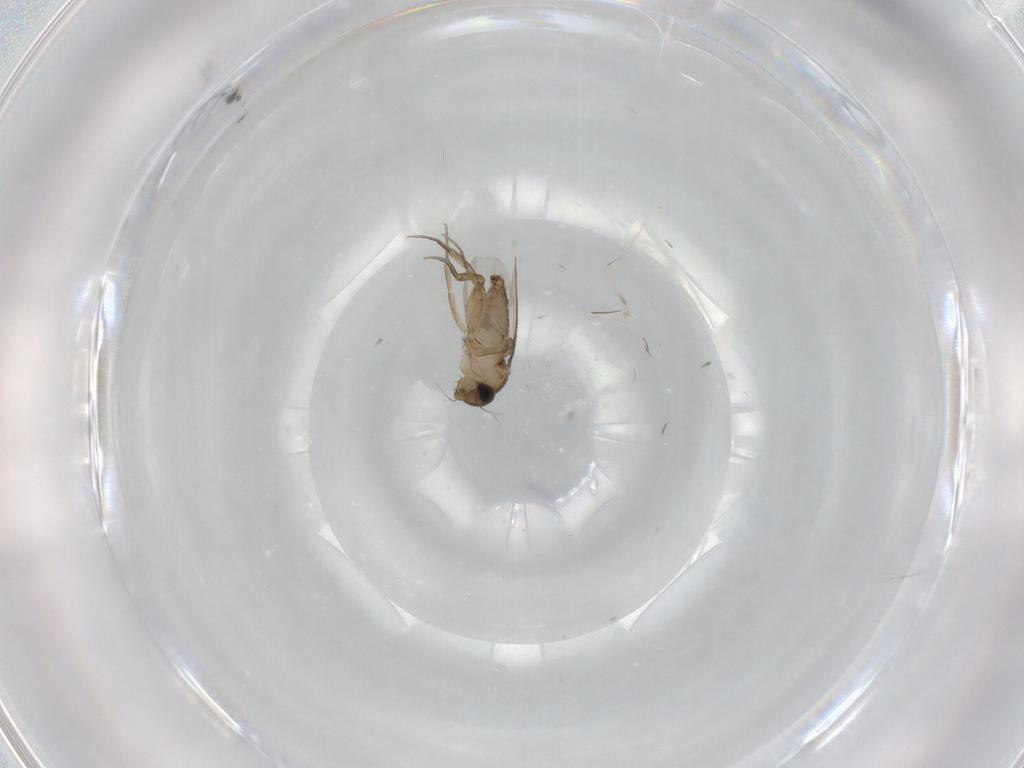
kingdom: Animalia
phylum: Arthropoda
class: Insecta
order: Diptera
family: Phoridae
